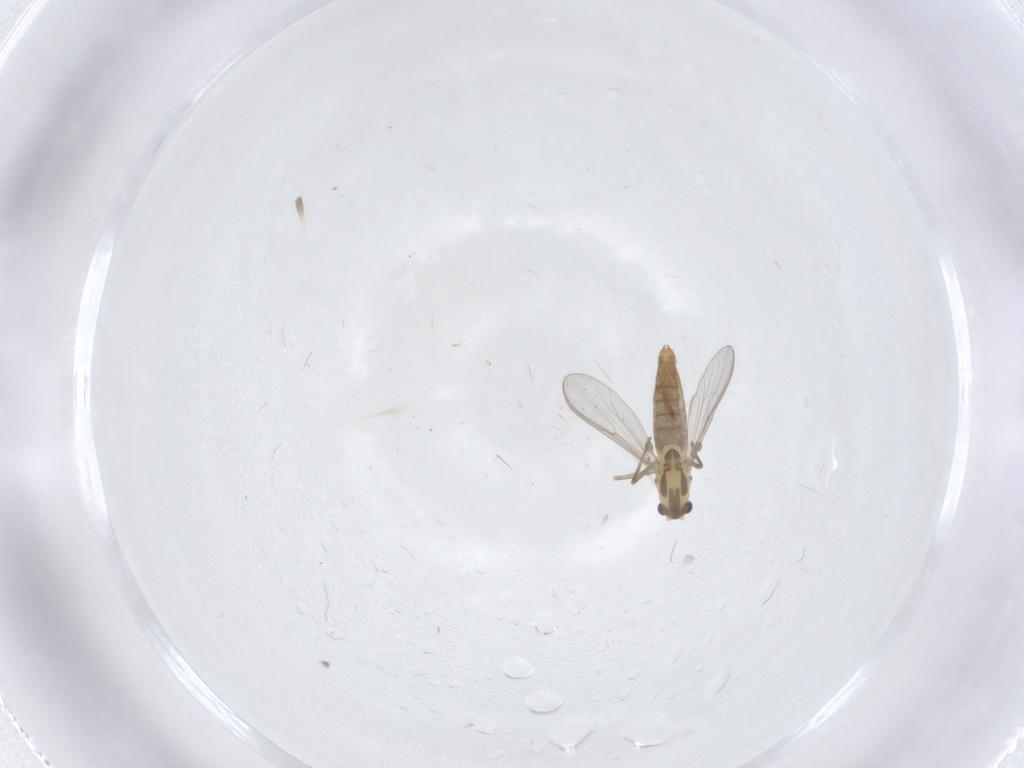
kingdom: Animalia
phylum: Arthropoda
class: Insecta
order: Diptera
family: Chironomidae
